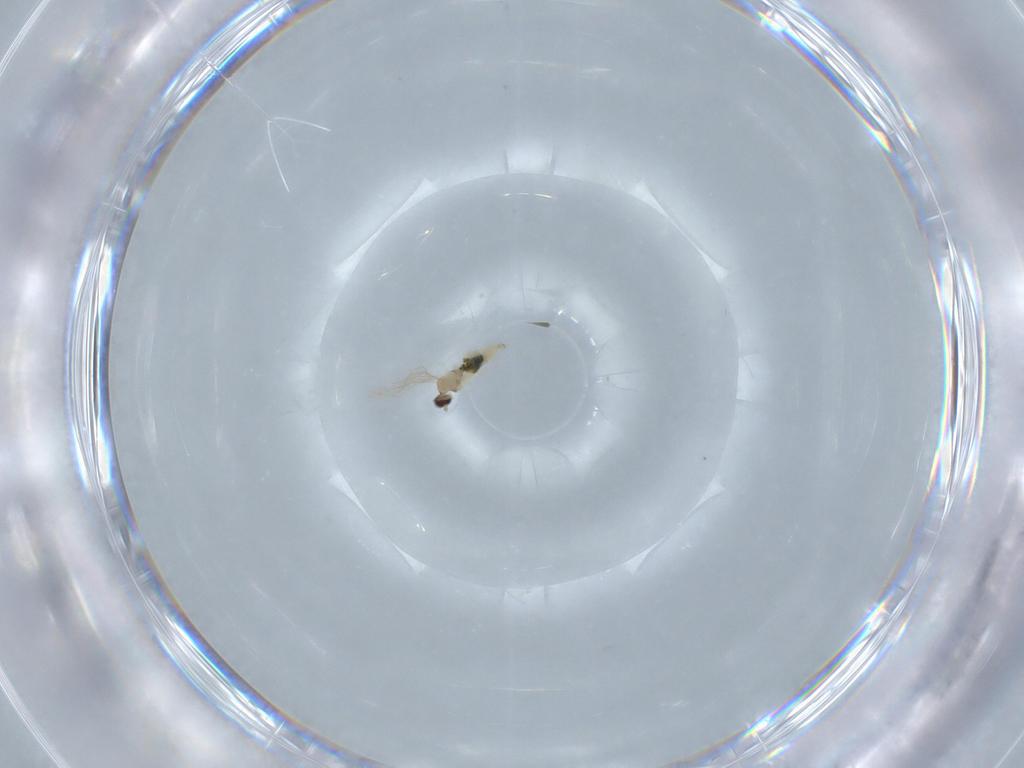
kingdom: Animalia
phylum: Arthropoda
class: Insecta
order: Diptera
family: Cecidomyiidae
